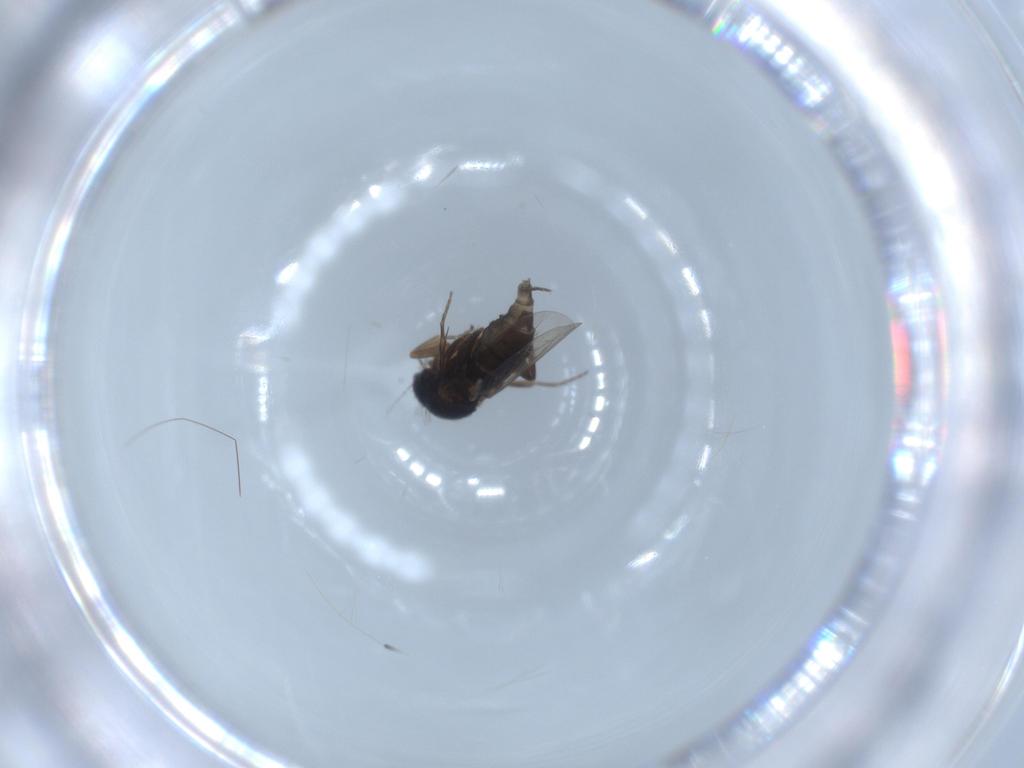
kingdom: Animalia
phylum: Arthropoda
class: Insecta
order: Diptera
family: Phoridae
